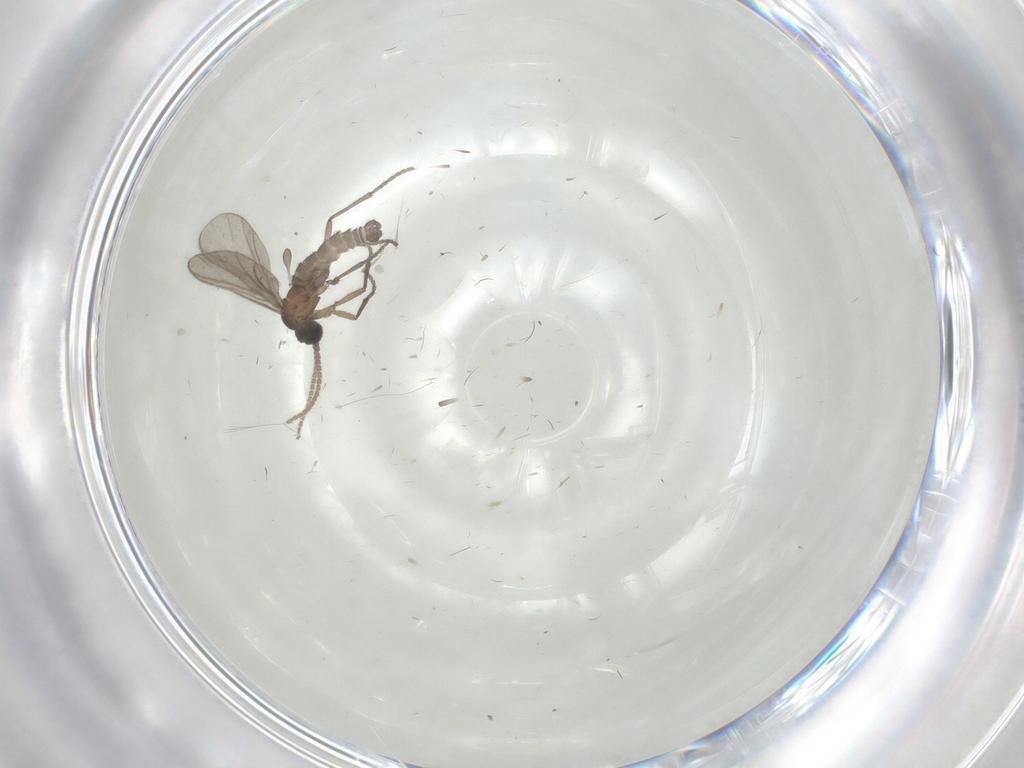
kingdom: Animalia
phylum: Arthropoda
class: Insecta
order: Diptera
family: Sciaridae
